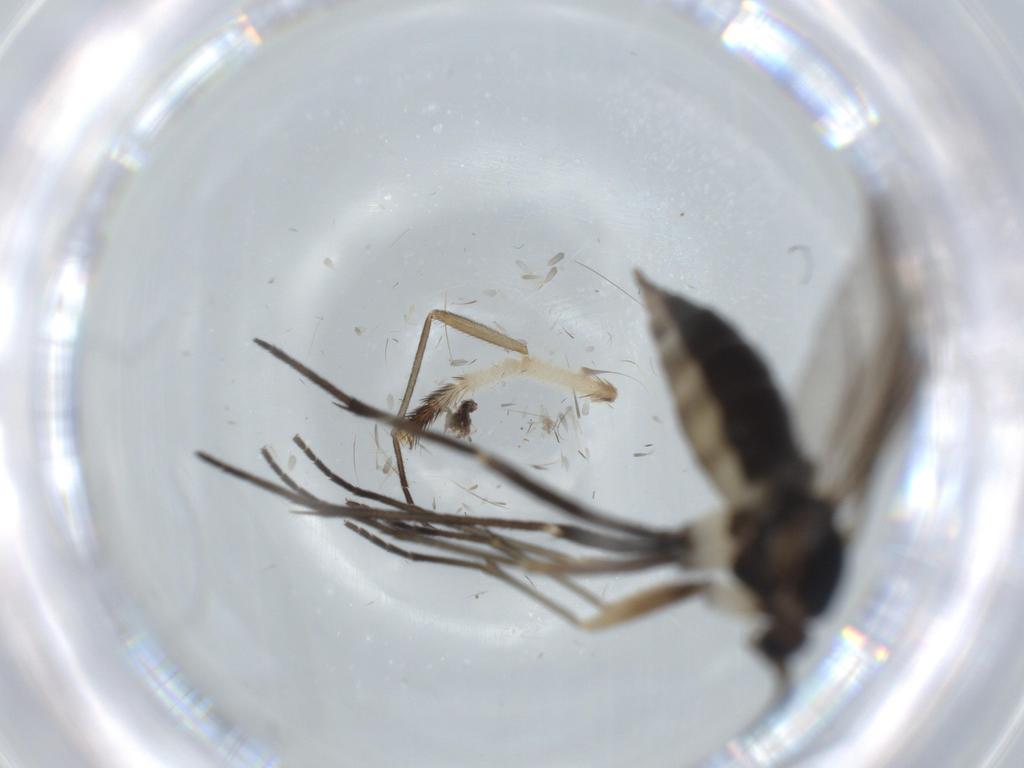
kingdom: Animalia
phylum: Arthropoda
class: Insecta
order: Diptera
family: Sciaridae
